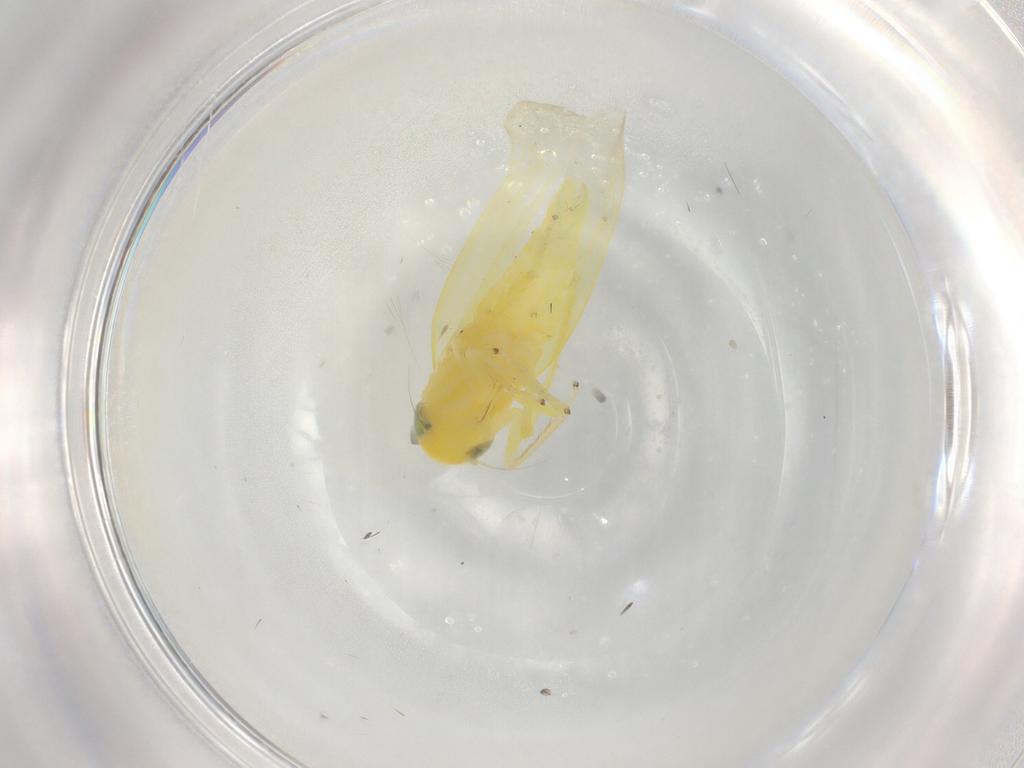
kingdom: Animalia
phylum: Arthropoda
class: Insecta
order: Hemiptera
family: Cicadellidae
